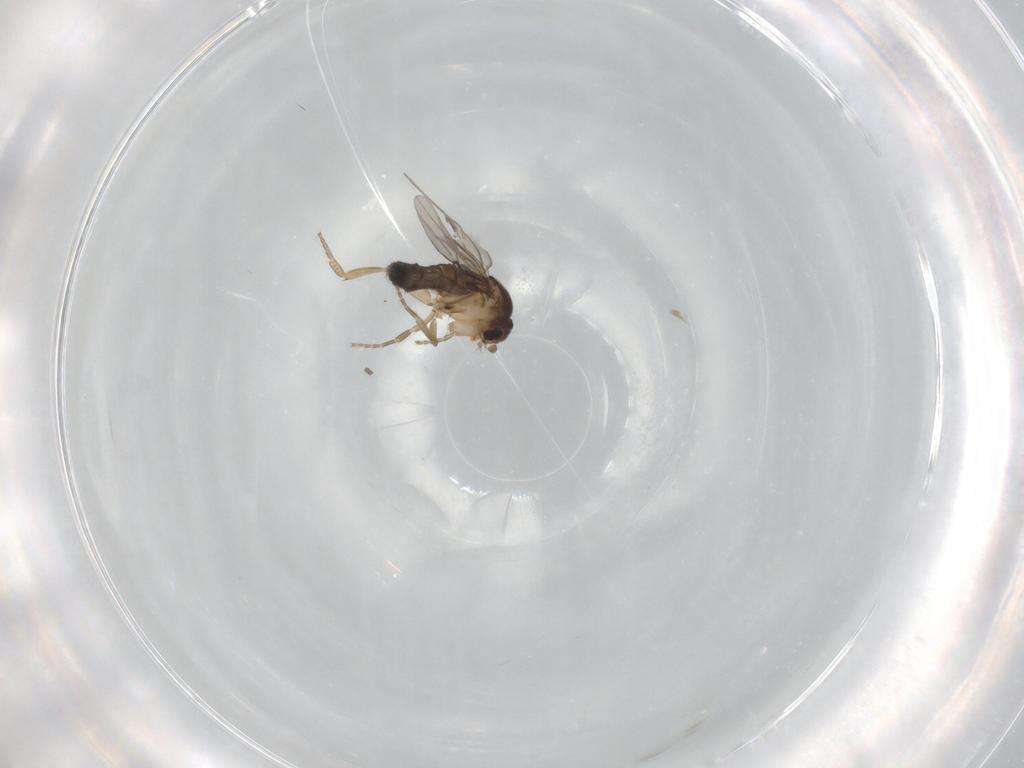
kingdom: Animalia
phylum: Arthropoda
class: Insecta
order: Diptera
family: Phoridae
